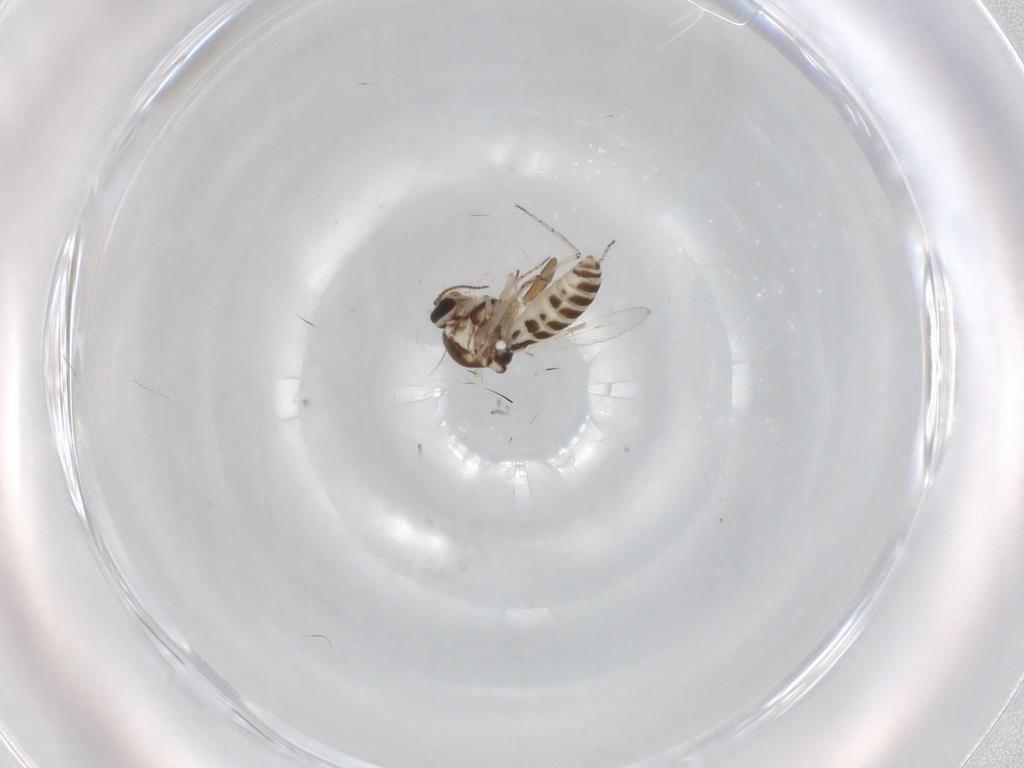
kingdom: Animalia
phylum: Arthropoda
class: Insecta
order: Diptera
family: Ceratopogonidae
